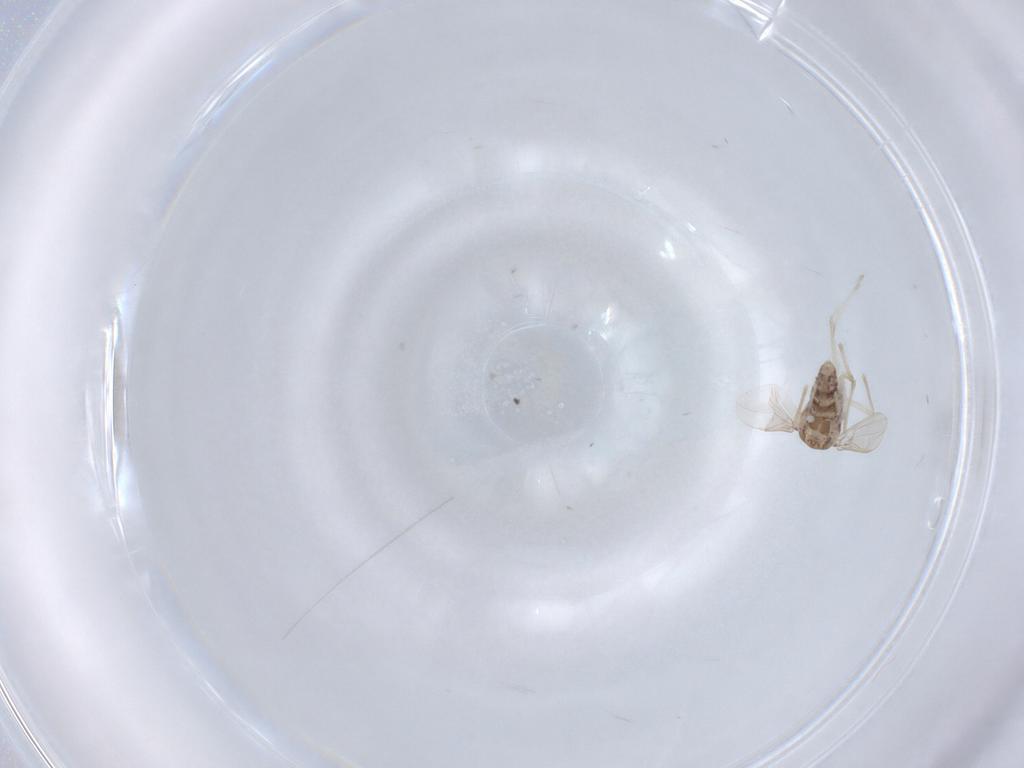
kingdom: Animalia
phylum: Arthropoda
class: Insecta
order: Diptera
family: Chironomidae
